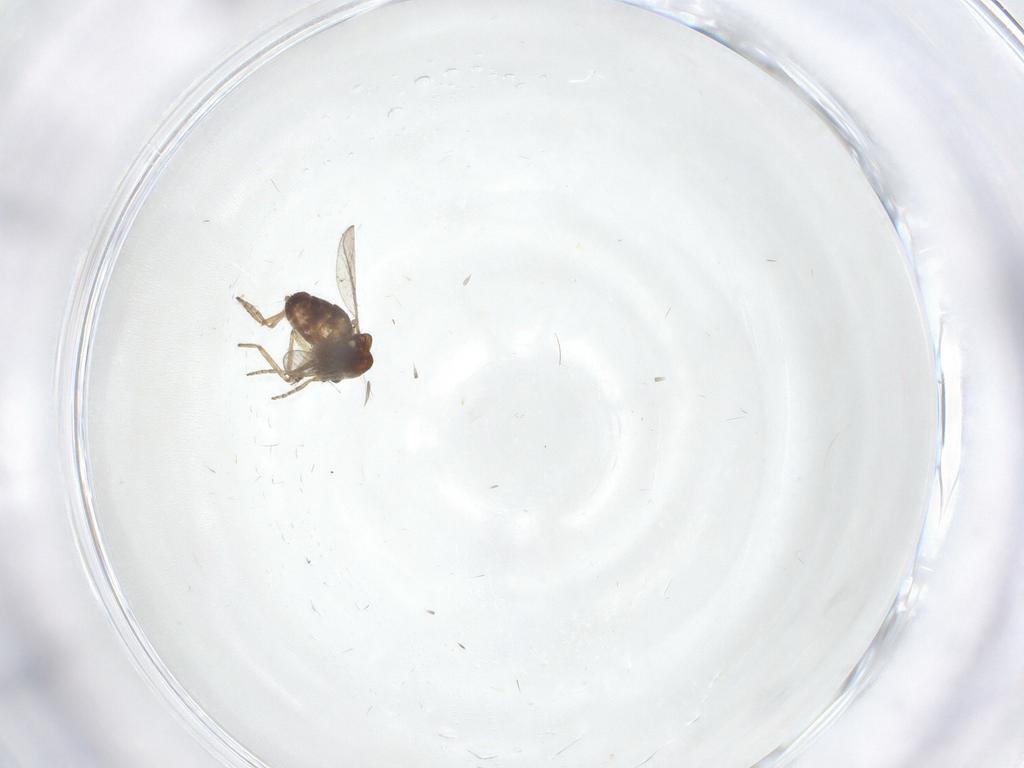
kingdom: Animalia
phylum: Arthropoda
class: Insecta
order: Diptera
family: Ceratopogonidae
